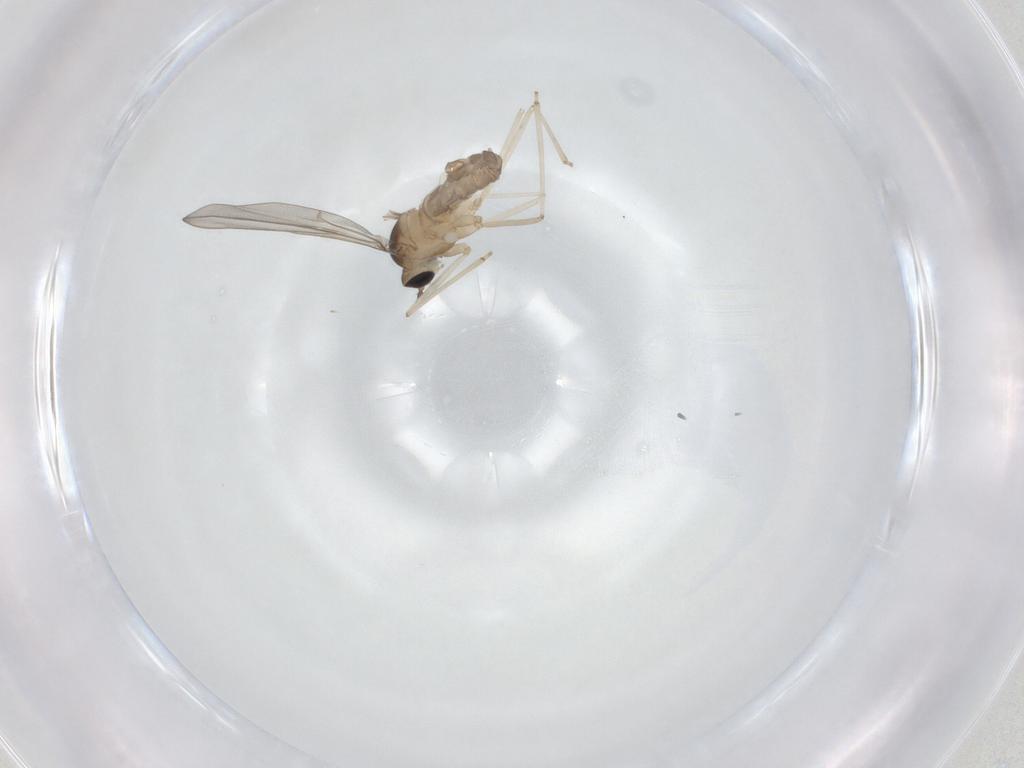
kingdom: Animalia
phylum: Arthropoda
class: Insecta
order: Diptera
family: Cecidomyiidae
